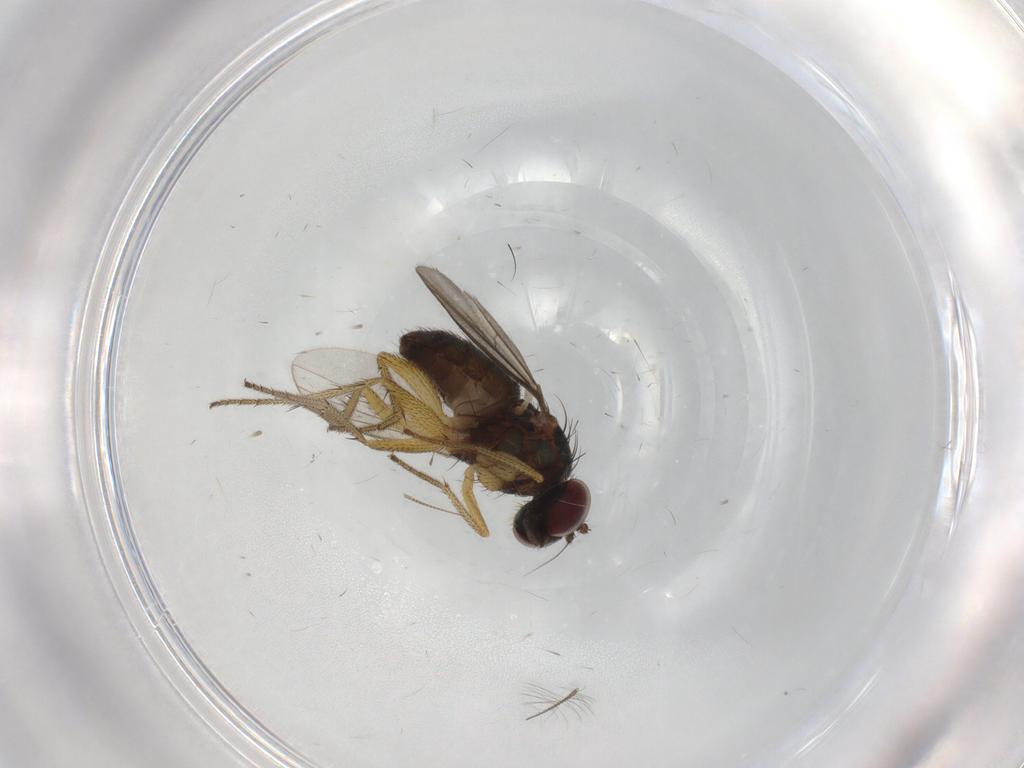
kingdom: Animalia
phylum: Arthropoda
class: Insecta
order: Diptera
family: Chironomidae
